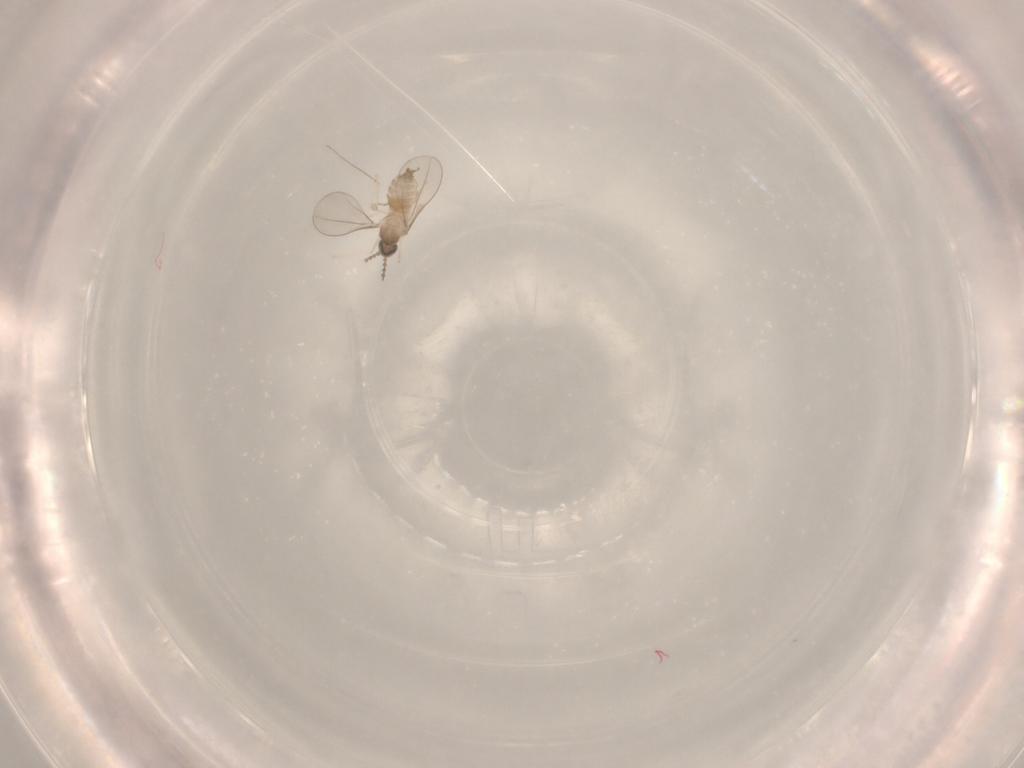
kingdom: Animalia
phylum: Arthropoda
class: Insecta
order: Diptera
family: Cecidomyiidae
